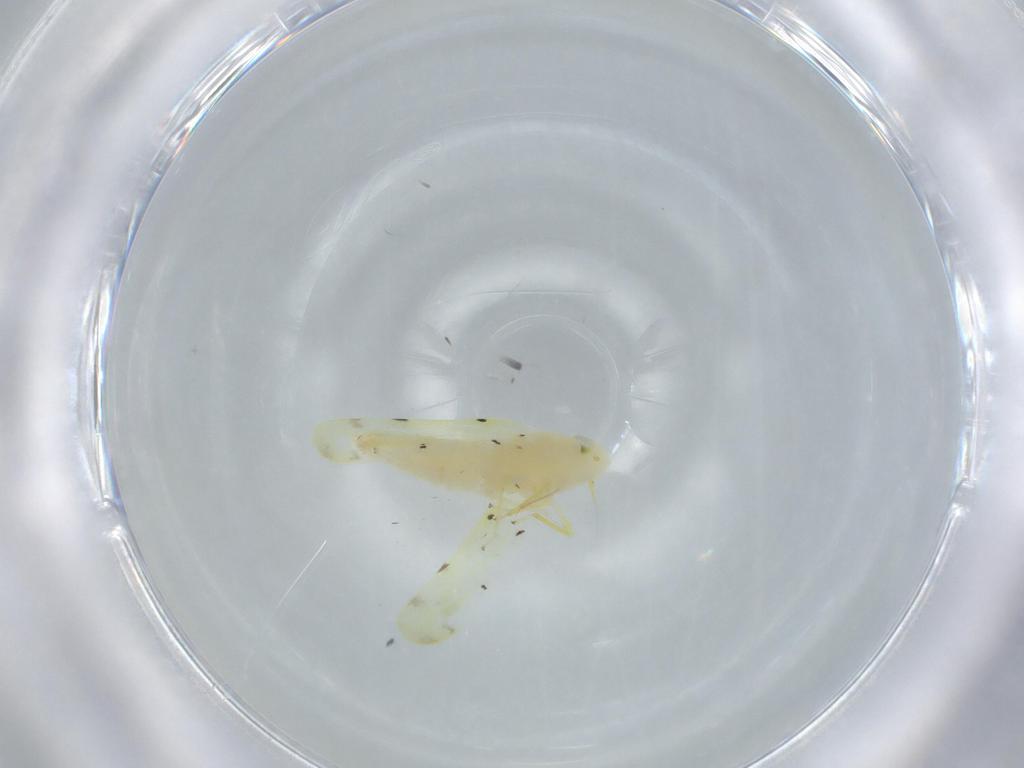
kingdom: Animalia
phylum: Arthropoda
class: Insecta
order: Hemiptera
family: Cicadellidae
